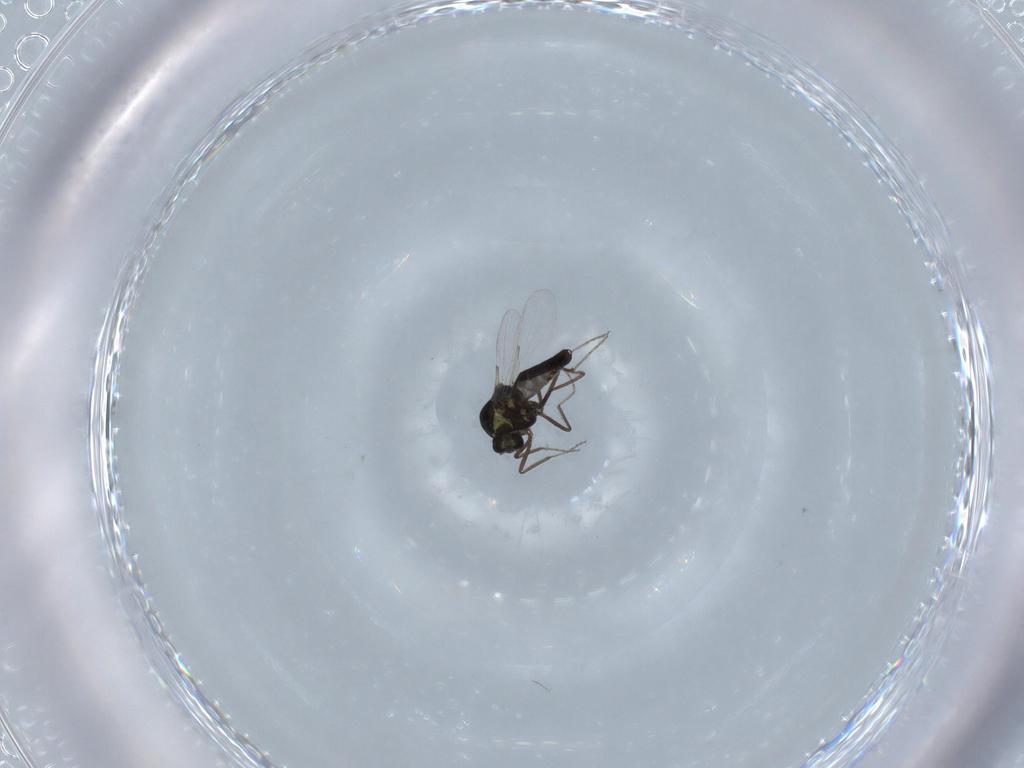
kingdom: Animalia
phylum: Arthropoda
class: Insecta
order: Diptera
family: Ceratopogonidae
